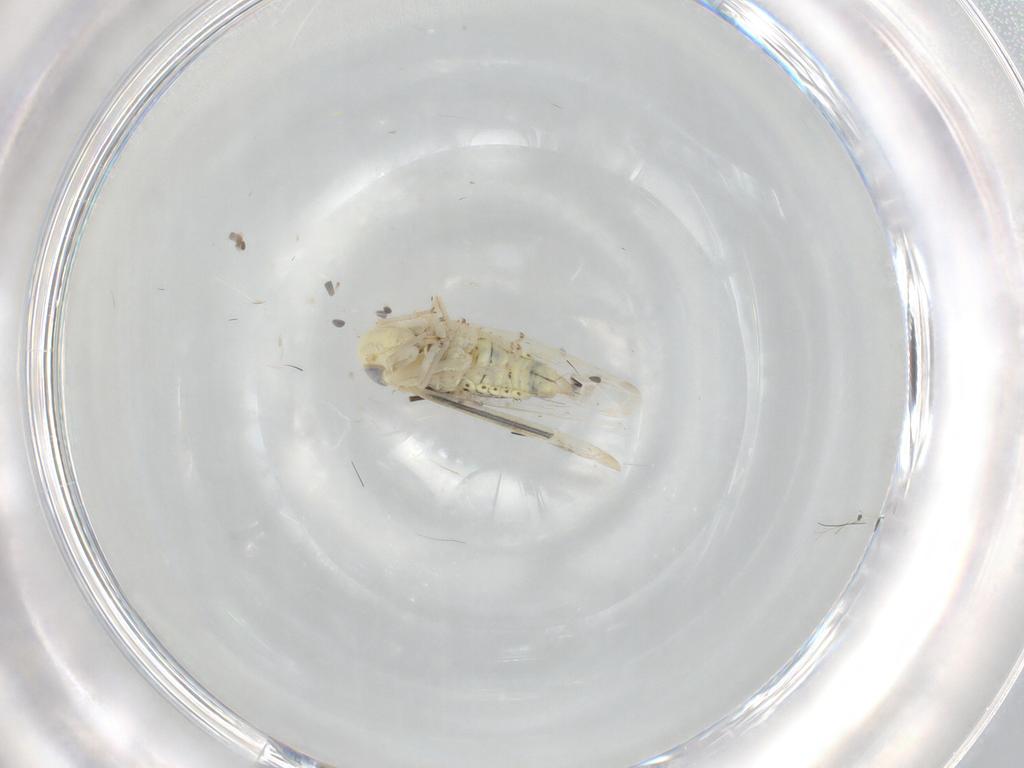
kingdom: Animalia
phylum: Arthropoda
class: Insecta
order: Hemiptera
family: Cicadellidae
